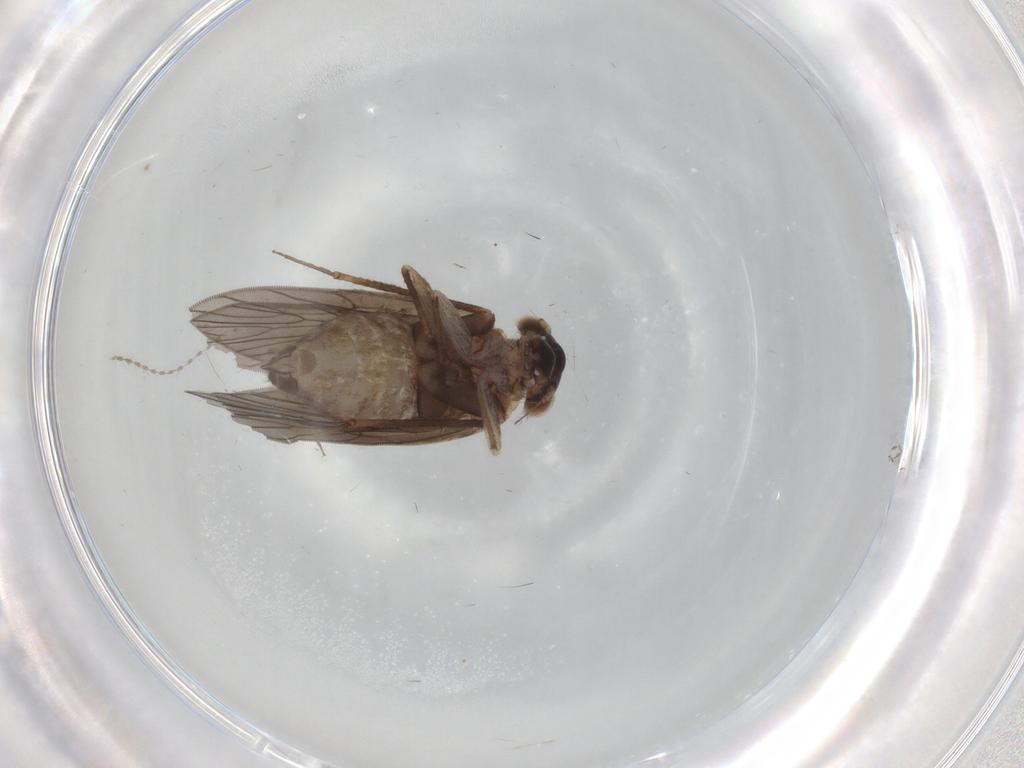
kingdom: Animalia
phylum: Arthropoda
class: Insecta
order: Psocodea
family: Lepidopsocidae
